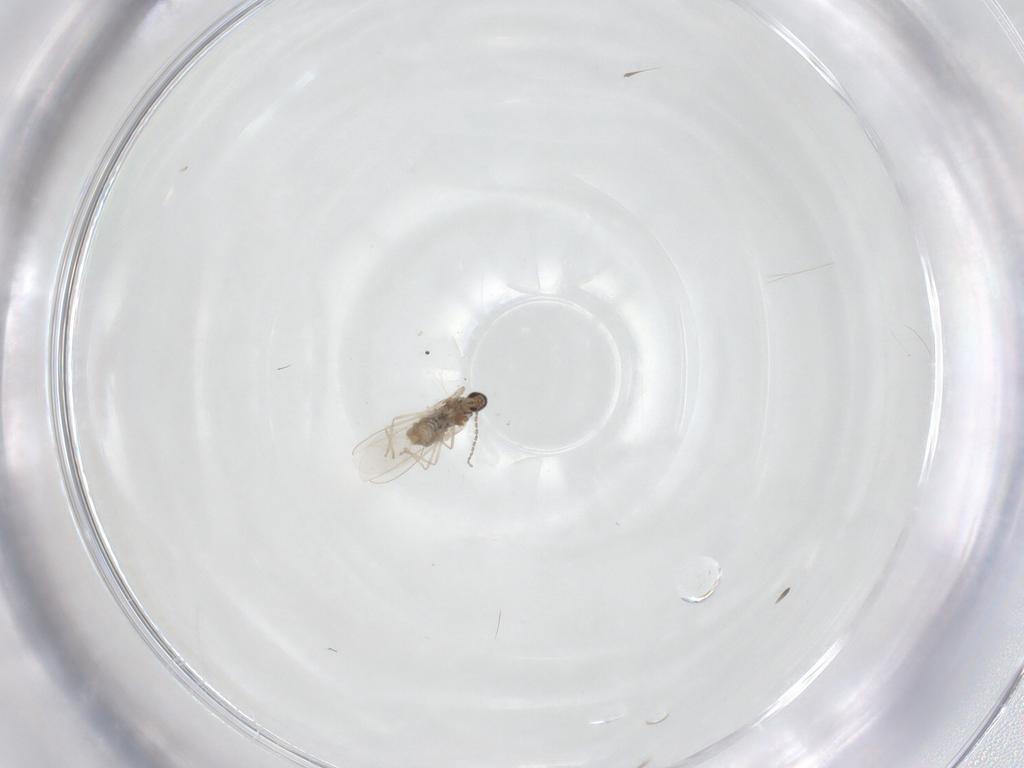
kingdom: Animalia
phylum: Arthropoda
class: Insecta
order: Diptera
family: Cecidomyiidae
